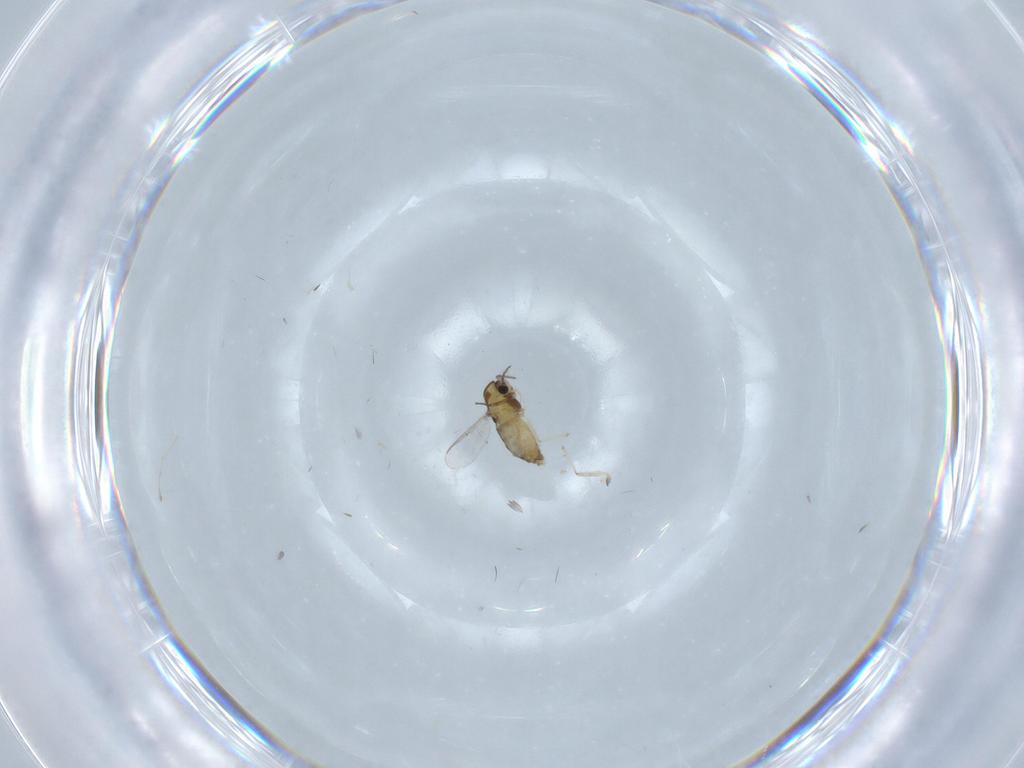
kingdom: Animalia
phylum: Arthropoda
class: Insecta
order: Diptera
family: Chironomidae
